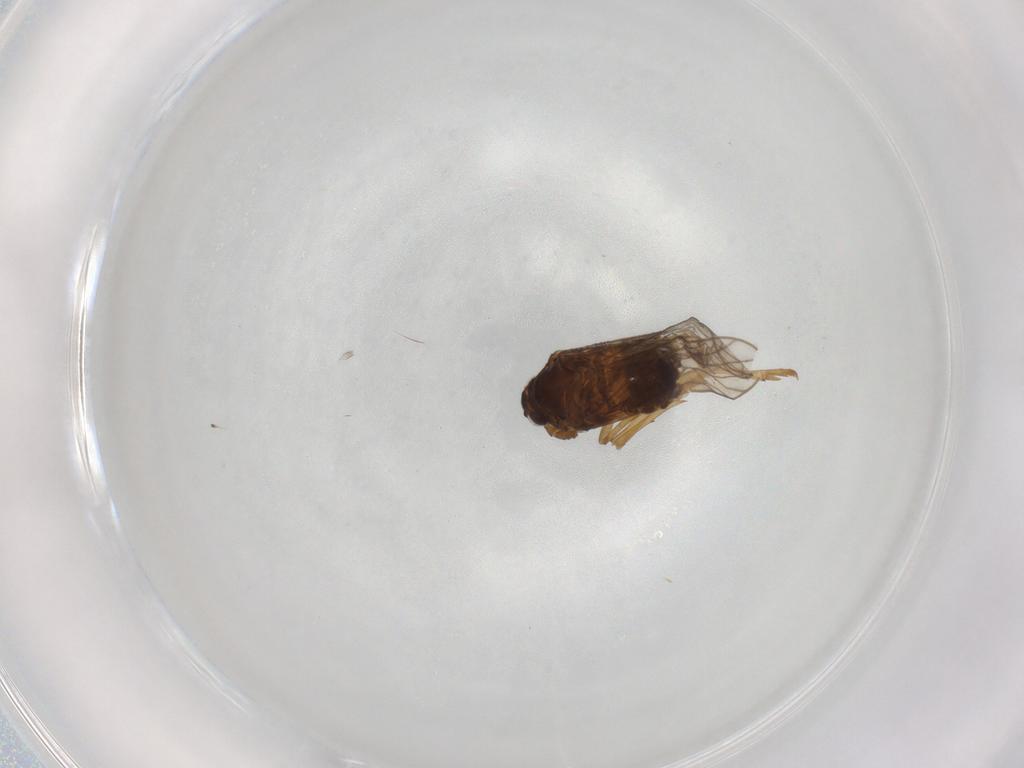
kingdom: Animalia
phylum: Arthropoda
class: Insecta
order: Hemiptera
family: Delphacidae
